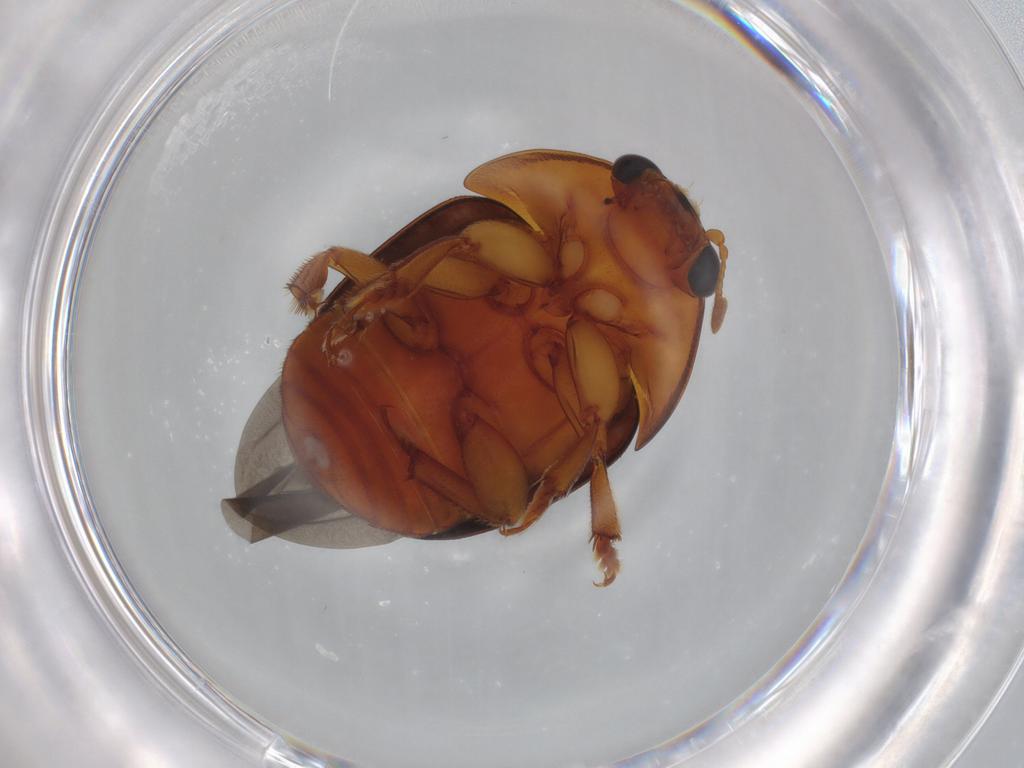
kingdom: Animalia
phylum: Arthropoda
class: Insecta
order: Coleoptera
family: Nitidulidae
